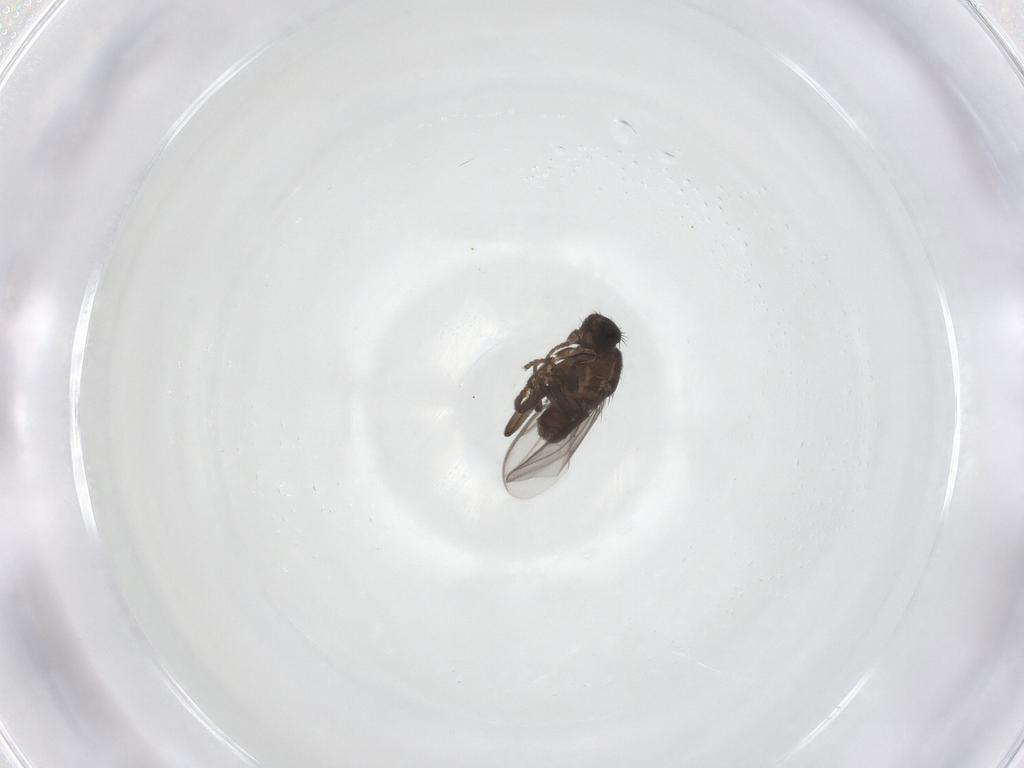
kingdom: Animalia
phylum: Arthropoda
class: Insecta
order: Diptera
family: Sphaeroceridae
